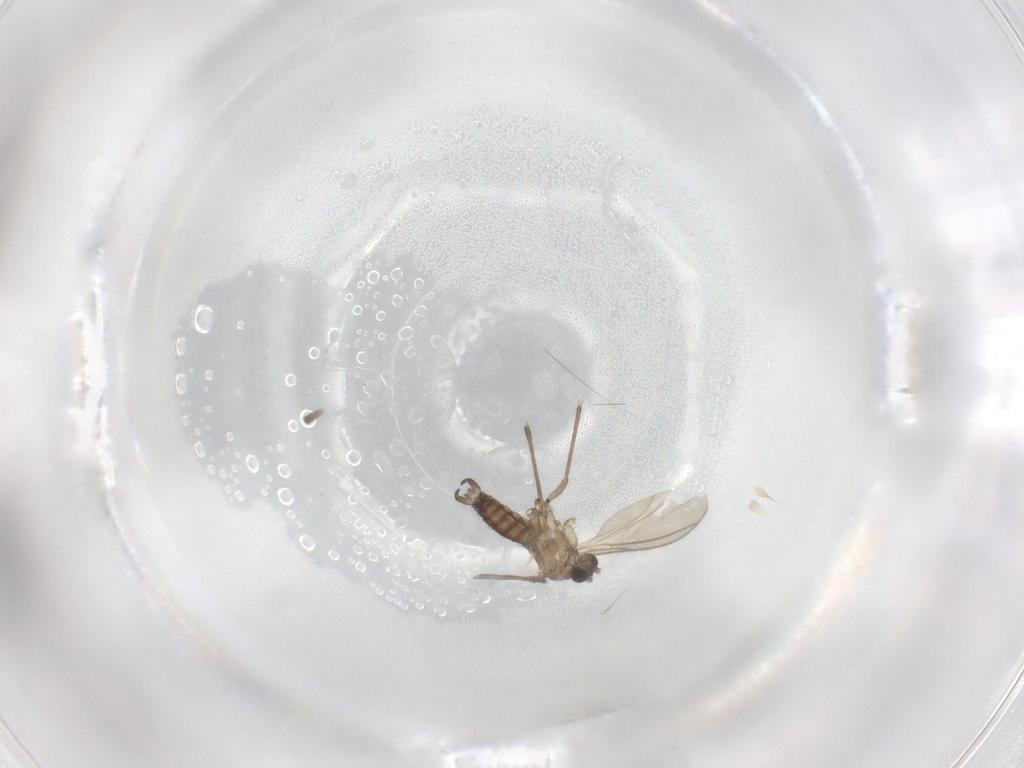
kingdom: Animalia
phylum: Arthropoda
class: Insecta
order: Diptera
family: Sciaridae
